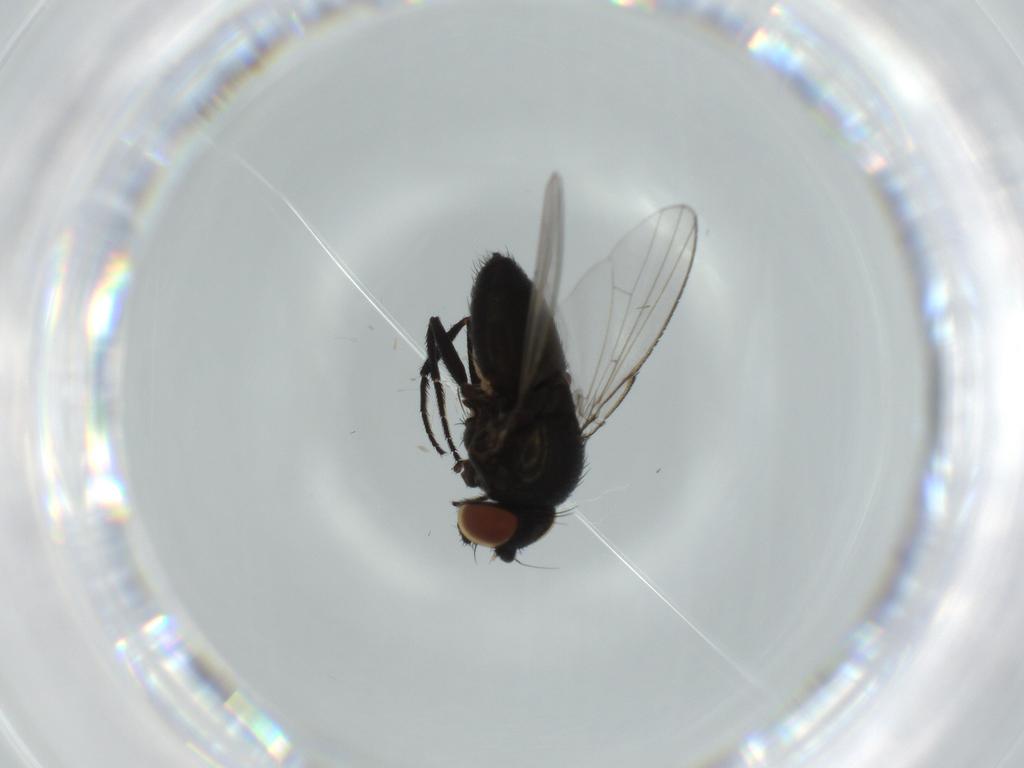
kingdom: Animalia
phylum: Arthropoda
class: Insecta
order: Diptera
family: Milichiidae
